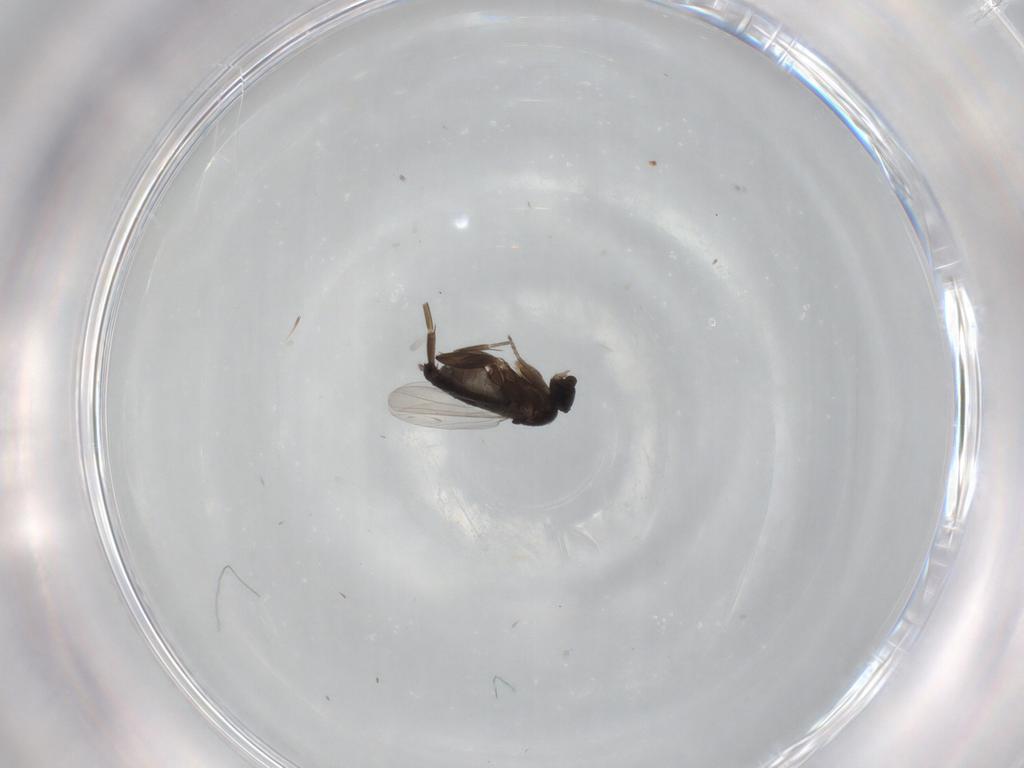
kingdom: Animalia
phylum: Arthropoda
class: Insecta
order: Diptera
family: Phoridae
